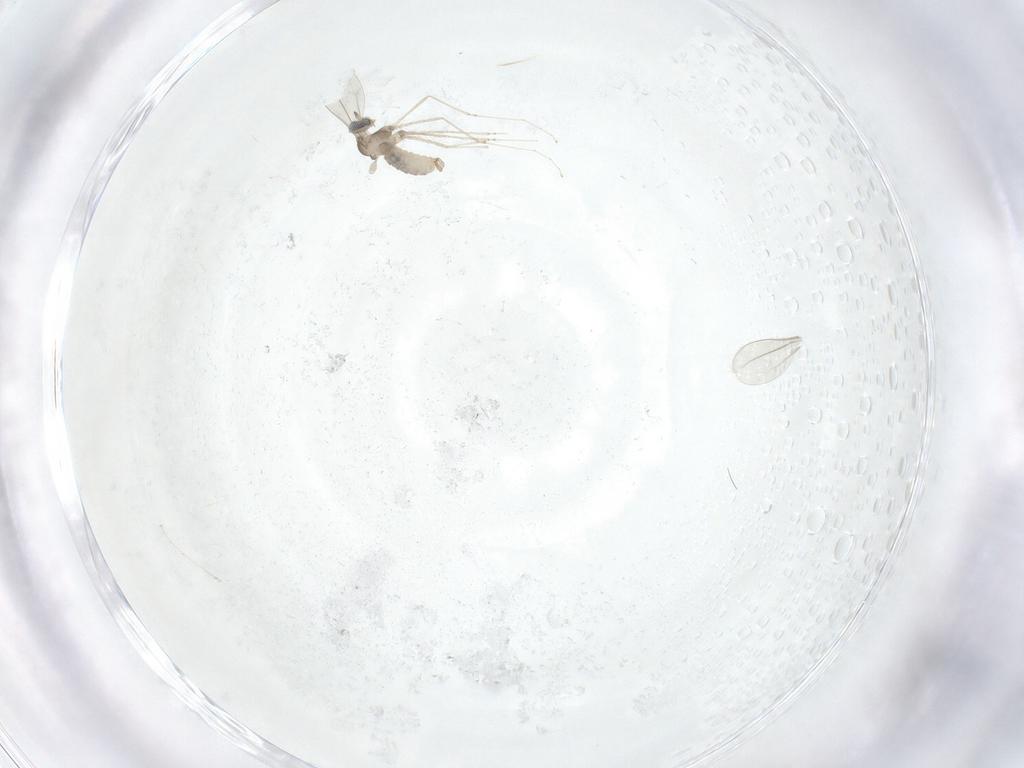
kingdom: Animalia
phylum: Arthropoda
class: Insecta
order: Diptera
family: Cecidomyiidae
